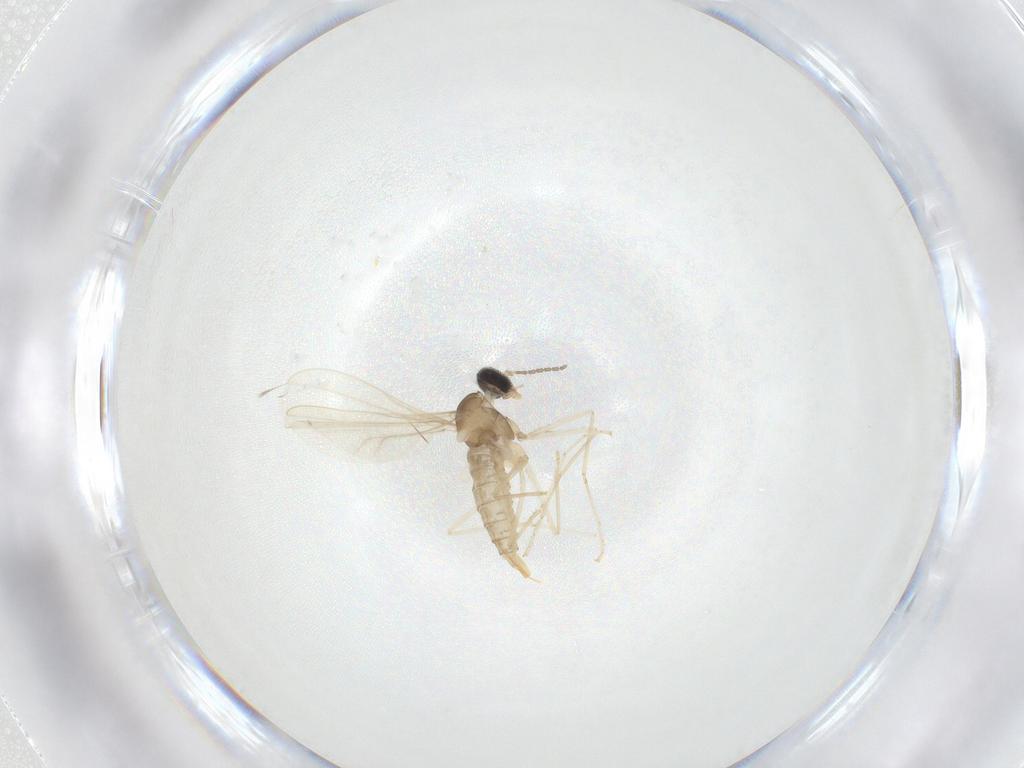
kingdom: Animalia
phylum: Arthropoda
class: Insecta
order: Diptera
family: Cecidomyiidae
